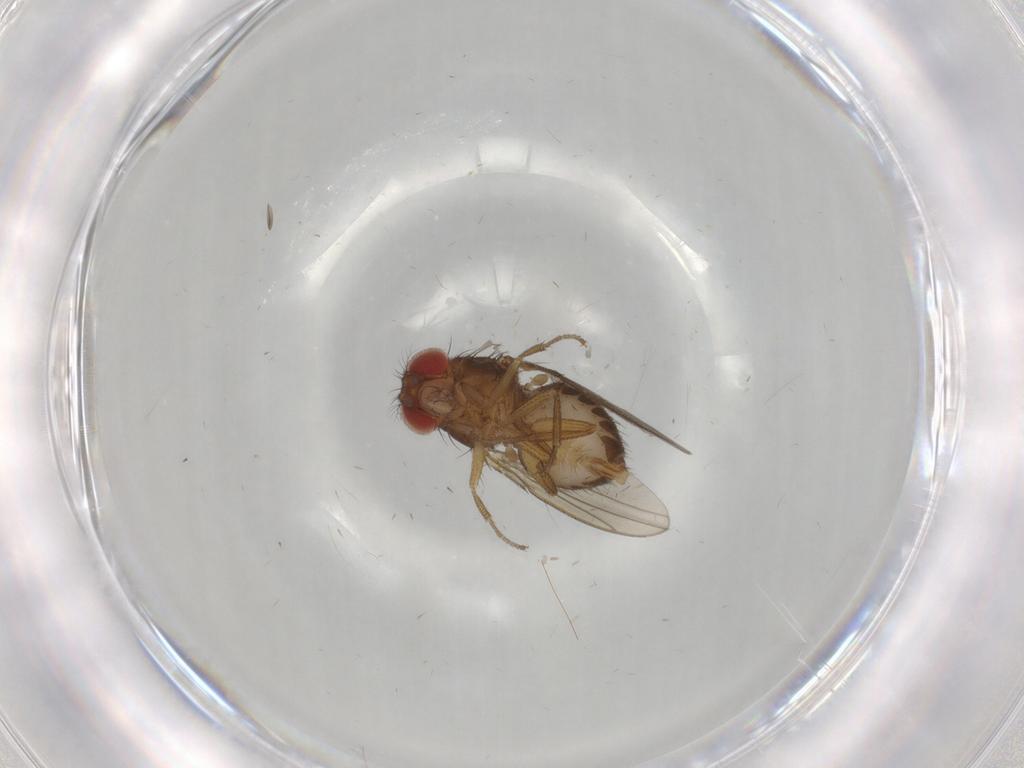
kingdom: Animalia
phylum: Arthropoda
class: Insecta
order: Diptera
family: Drosophilidae
